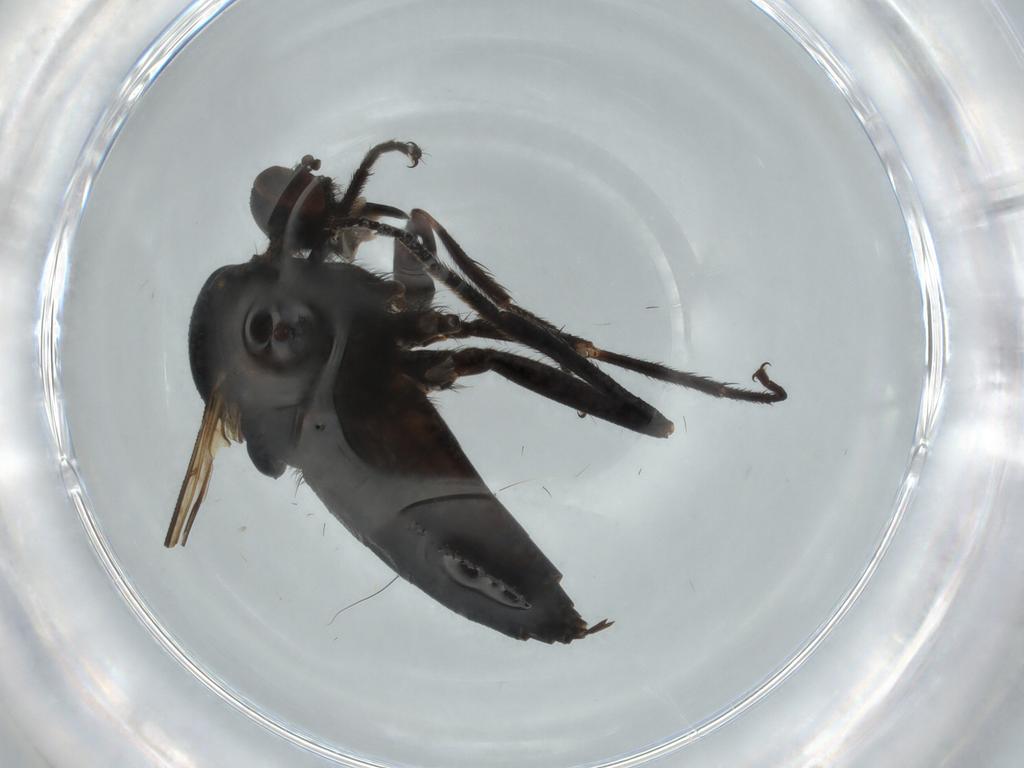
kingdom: Animalia
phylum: Arthropoda
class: Insecta
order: Diptera
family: Empididae
